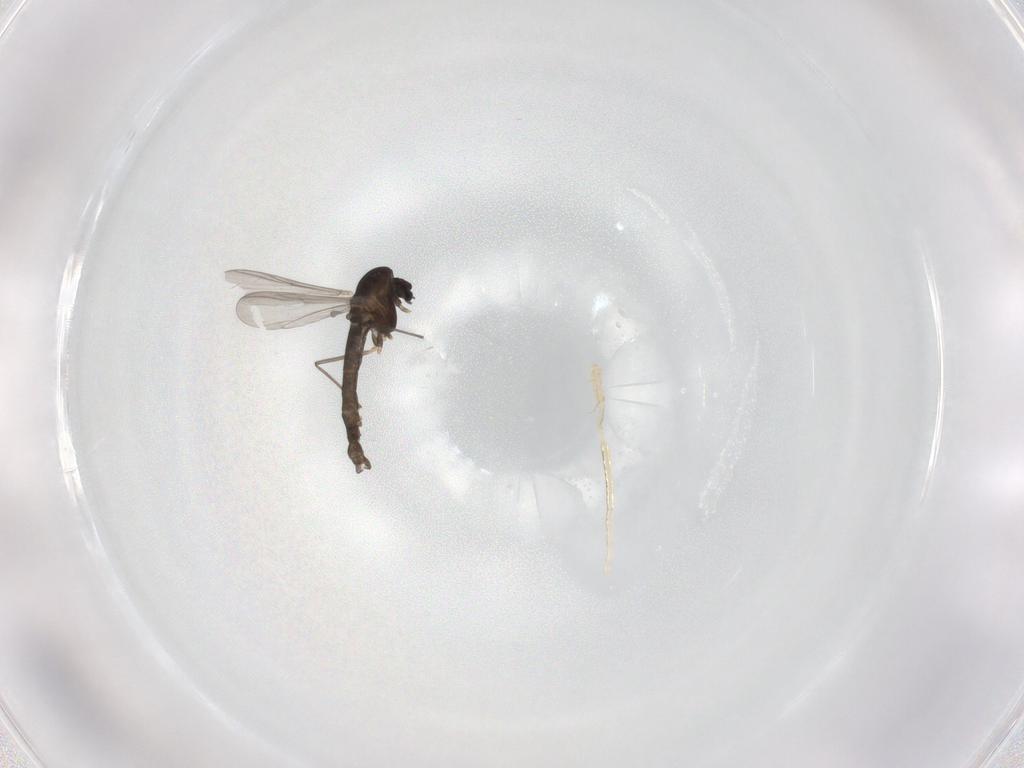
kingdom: Animalia
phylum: Arthropoda
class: Insecta
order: Diptera
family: Chironomidae
